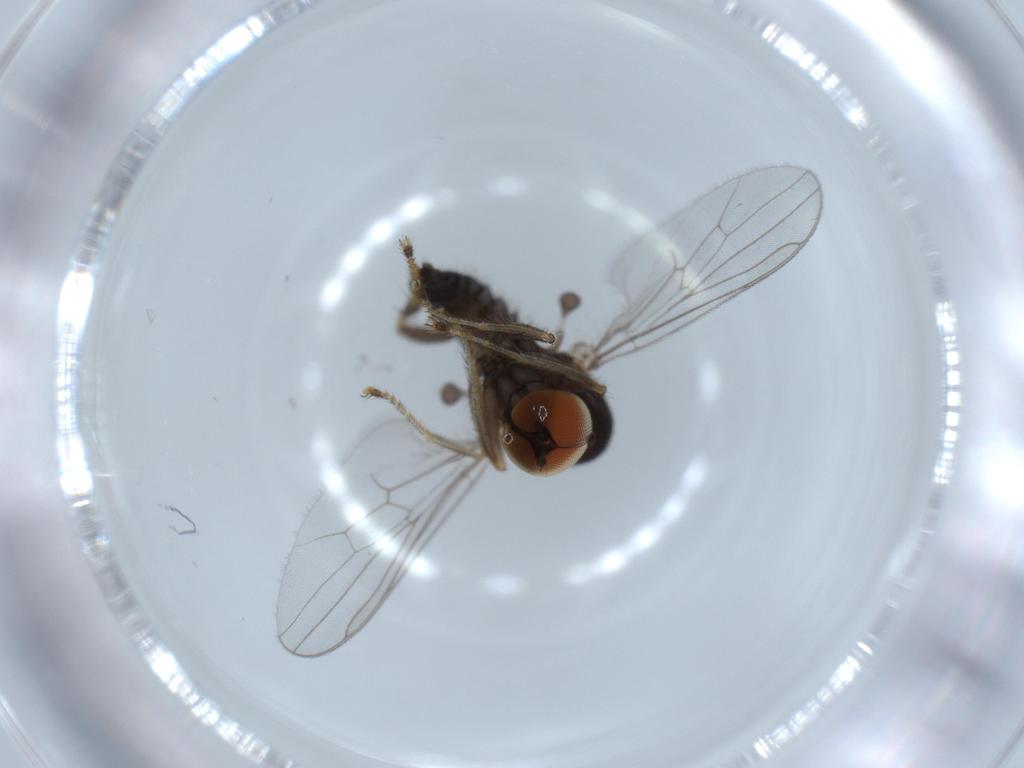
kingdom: Animalia
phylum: Arthropoda
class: Insecta
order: Diptera
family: Hybotidae
